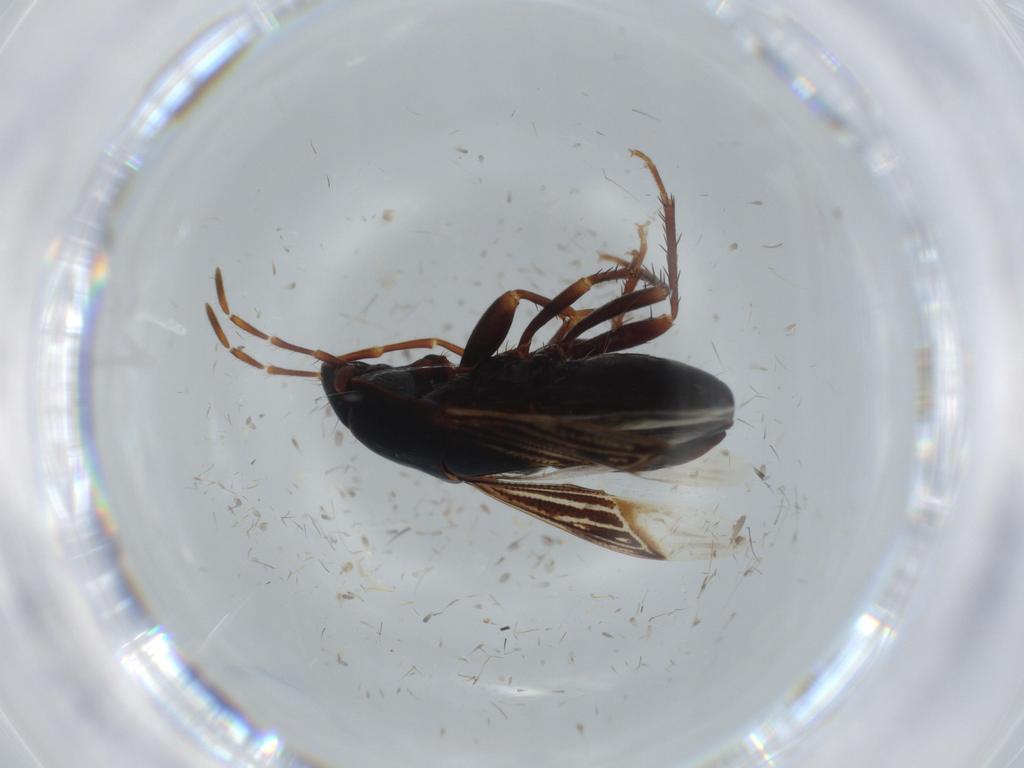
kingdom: Animalia
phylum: Arthropoda
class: Insecta
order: Hemiptera
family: Rhyparochromidae
